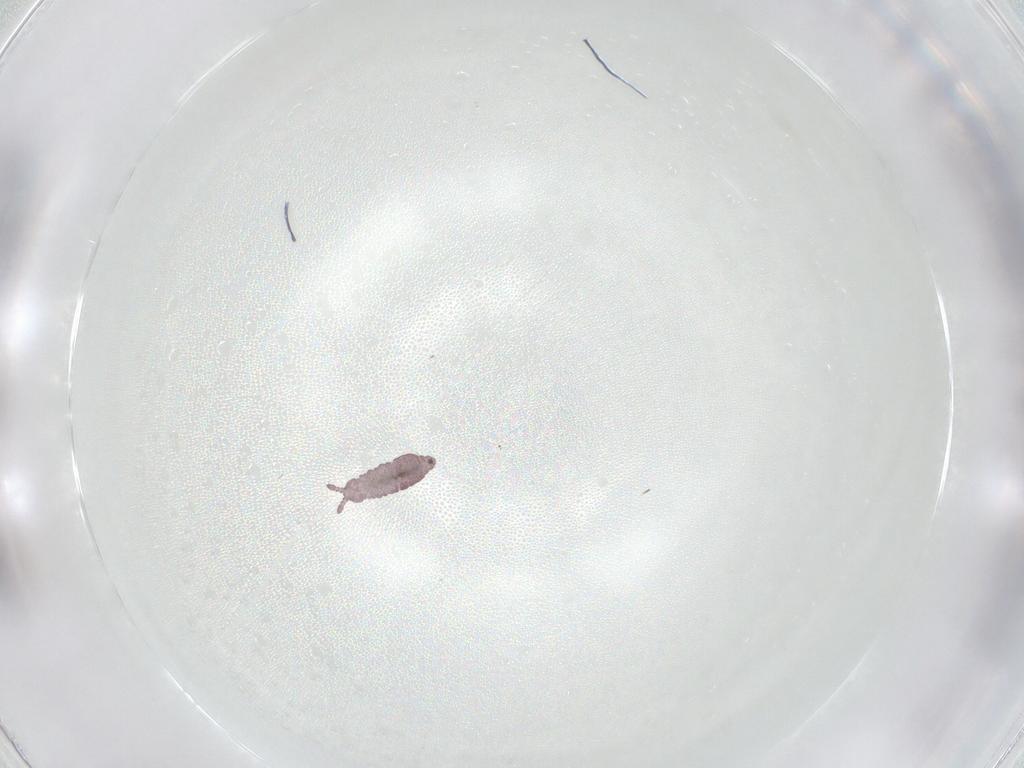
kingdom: Animalia
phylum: Arthropoda
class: Collembola
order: Poduromorpha
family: Hypogastruridae
